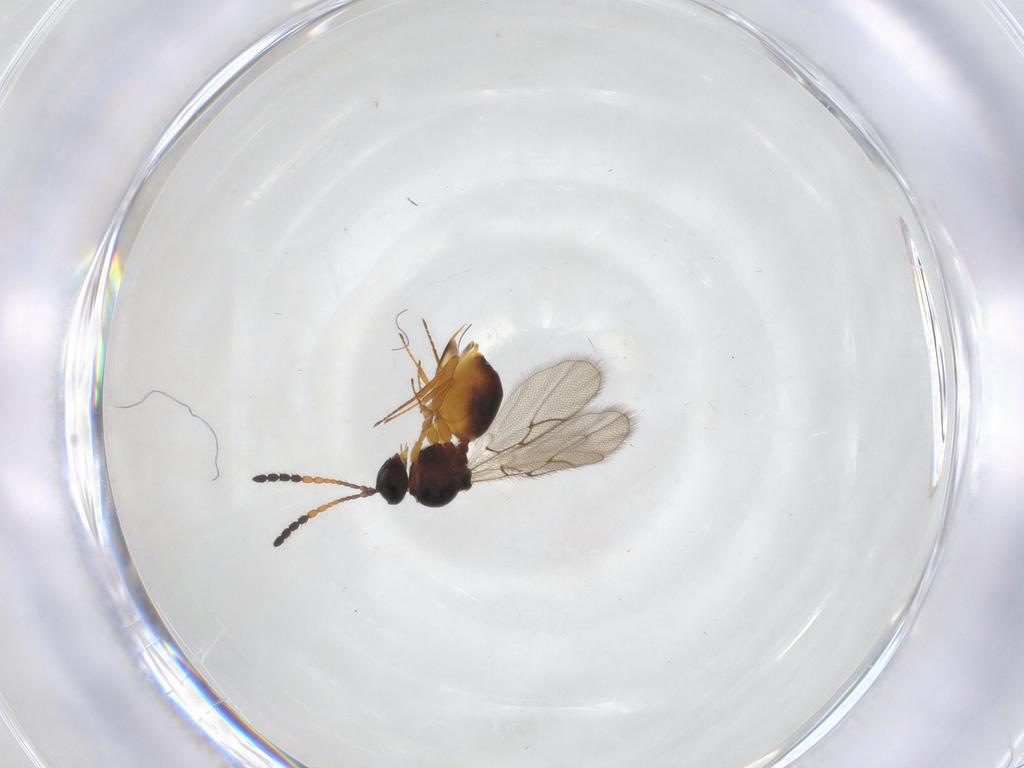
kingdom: Animalia
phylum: Arthropoda
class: Insecta
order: Hymenoptera
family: Figitidae
